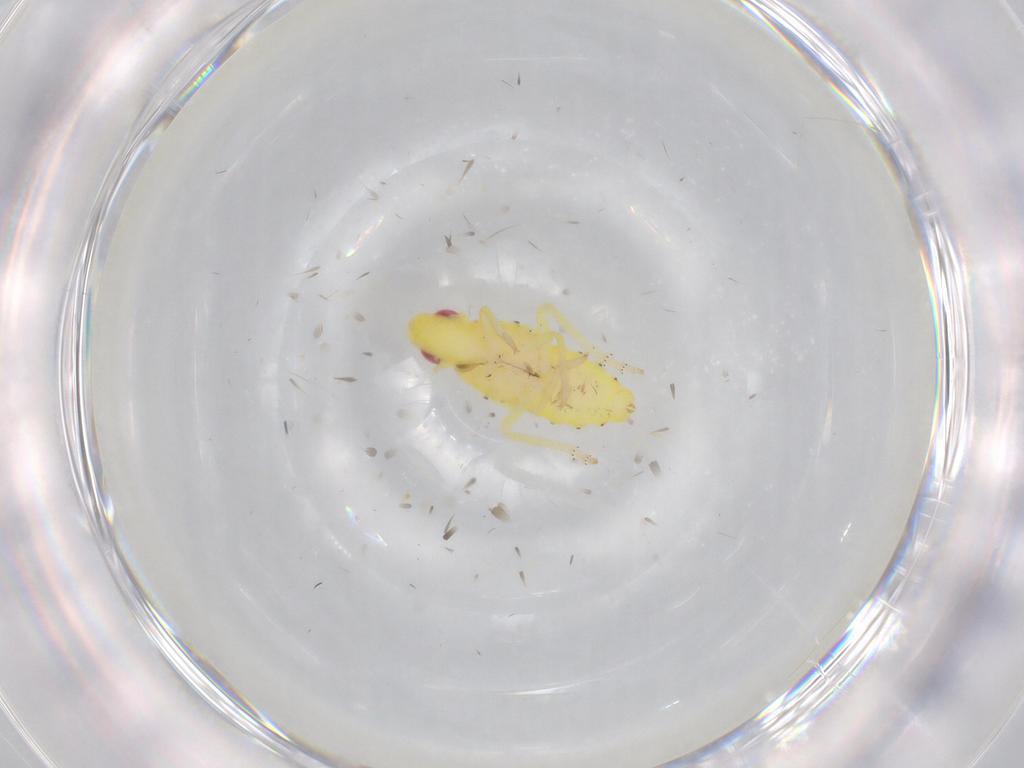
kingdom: Animalia
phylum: Arthropoda
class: Insecta
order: Hemiptera
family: Tropiduchidae
